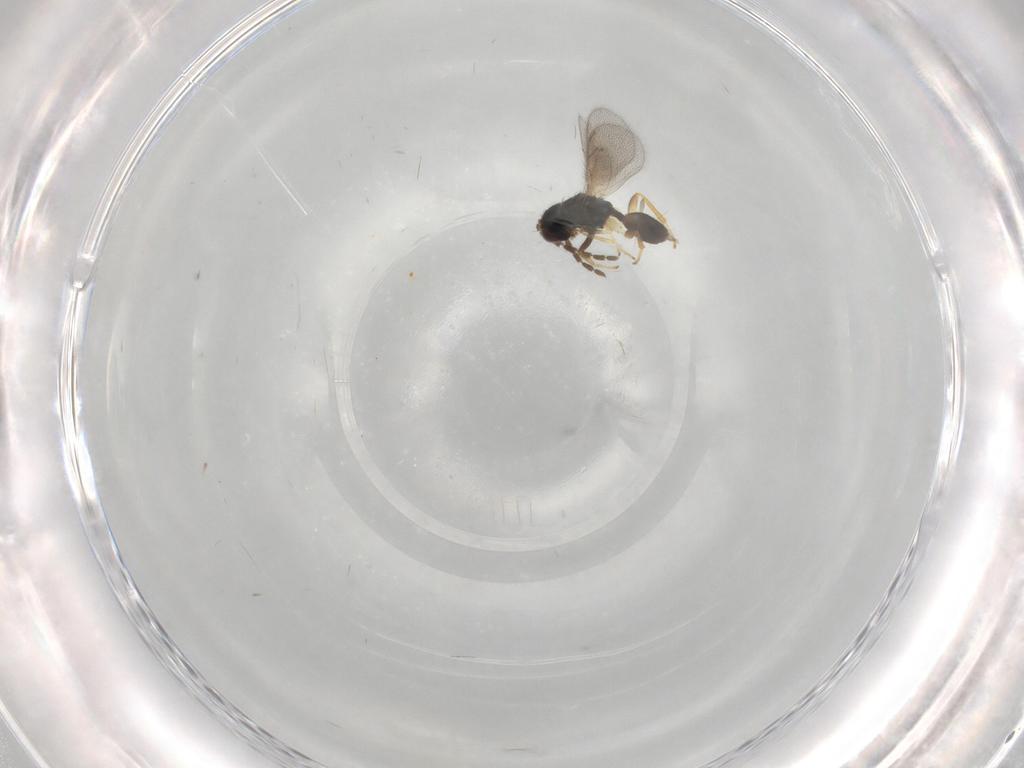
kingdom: Animalia
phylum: Arthropoda
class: Insecta
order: Hymenoptera
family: Eulophidae
